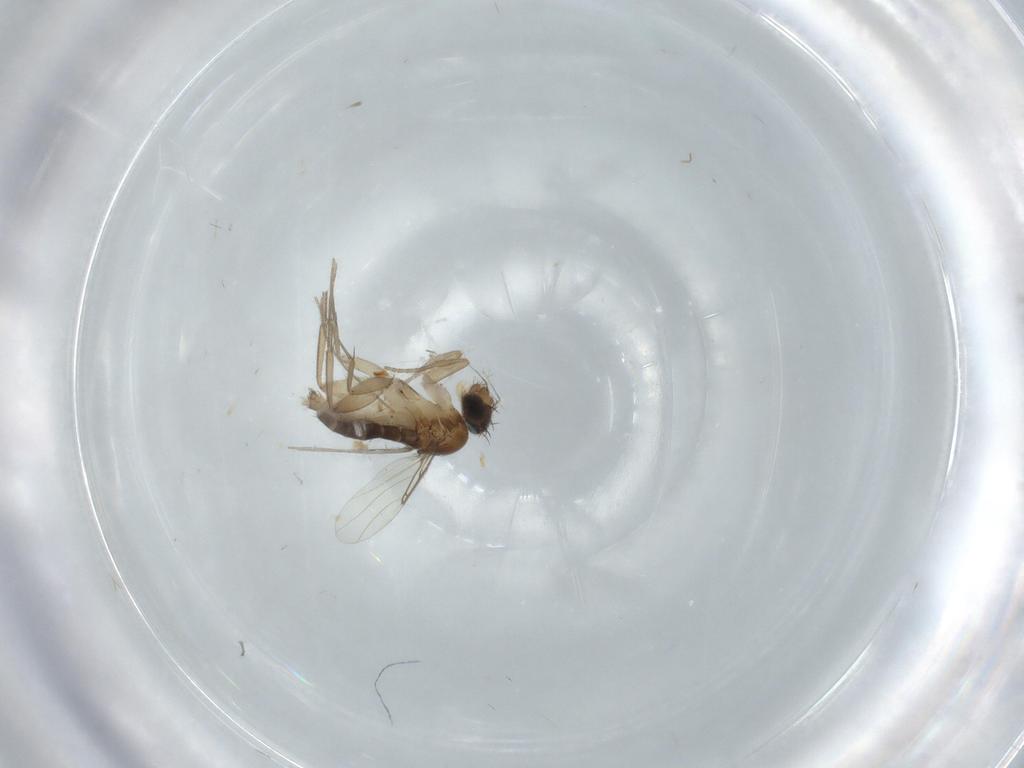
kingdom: Animalia
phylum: Arthropoda
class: Insecta
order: Diptera
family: Phoridae
